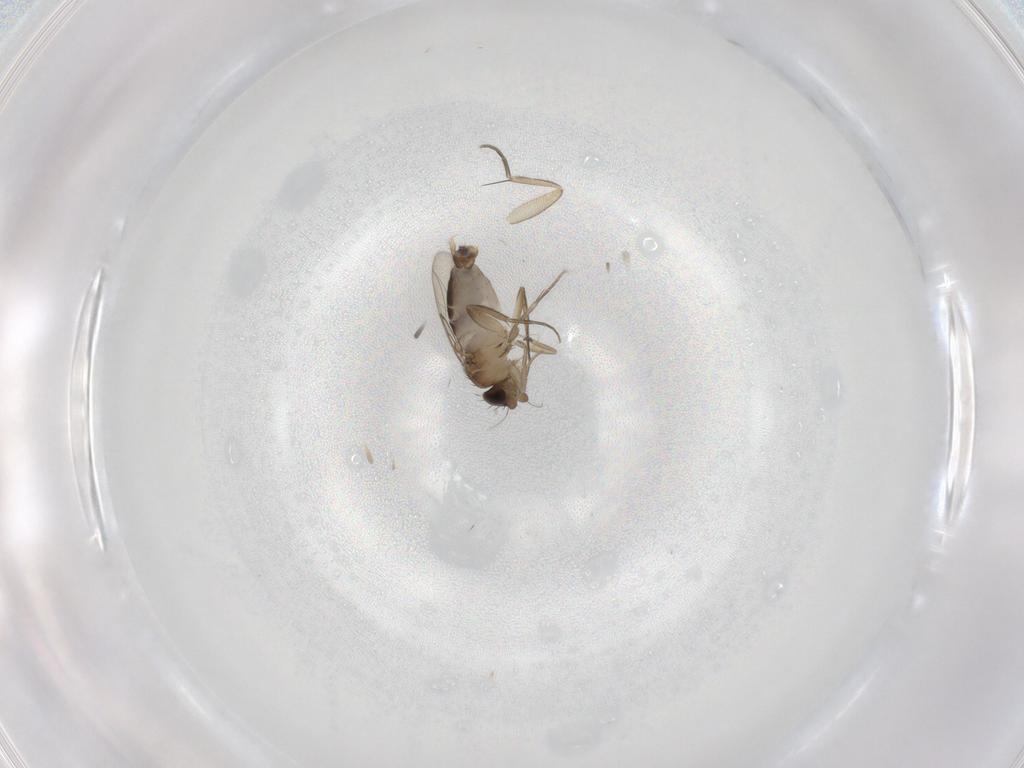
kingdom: Animalia
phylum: Arthropoda
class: Insecta
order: Diptera
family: Phoridae
